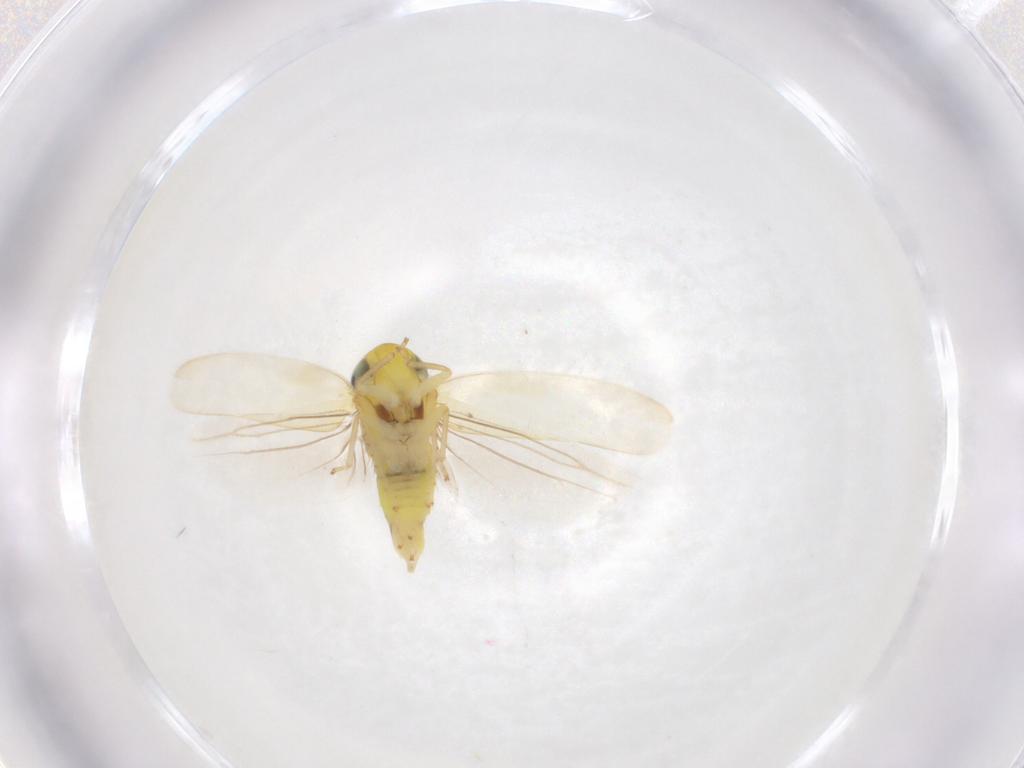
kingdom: Animalia
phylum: Arthropoda
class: Insecta
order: Hemiptera
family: Cicadellidae
